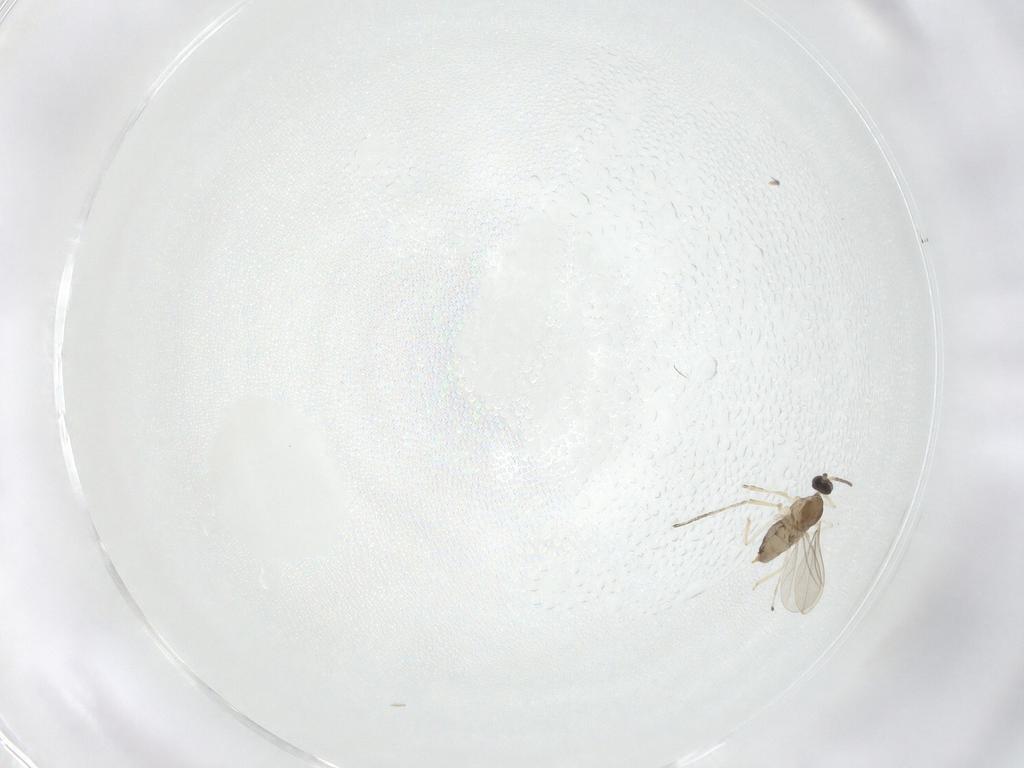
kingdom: Animalia
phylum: Arthropoda
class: Insecta
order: Diptera
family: Cecidomyiidae
